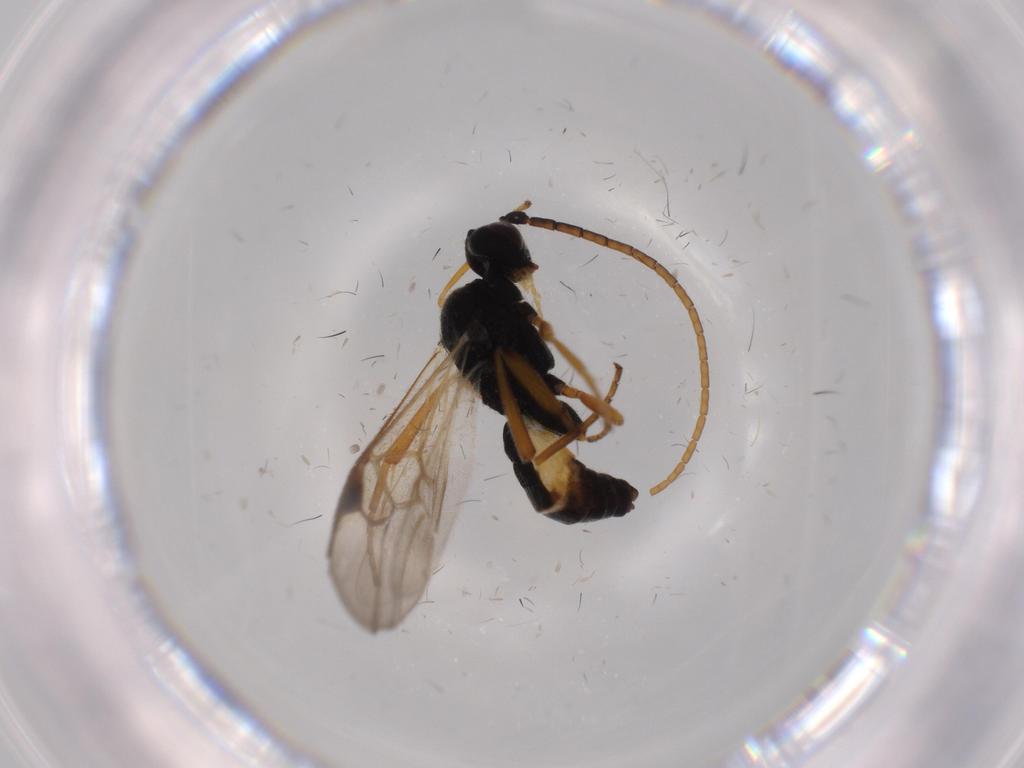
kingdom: Animalia
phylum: Arthropoda
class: Insecta
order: Hymenoptera
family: Braconidae
